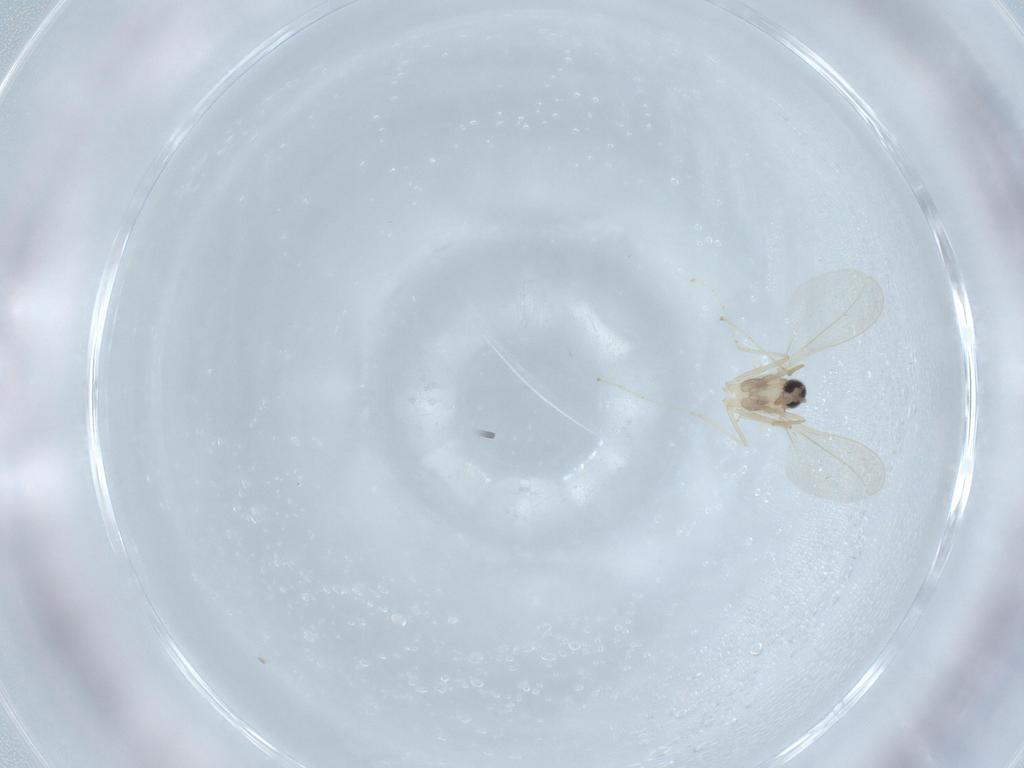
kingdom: Animalia
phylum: Arthropoda
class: Insecta
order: Diptera
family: Cecidomyiidae
